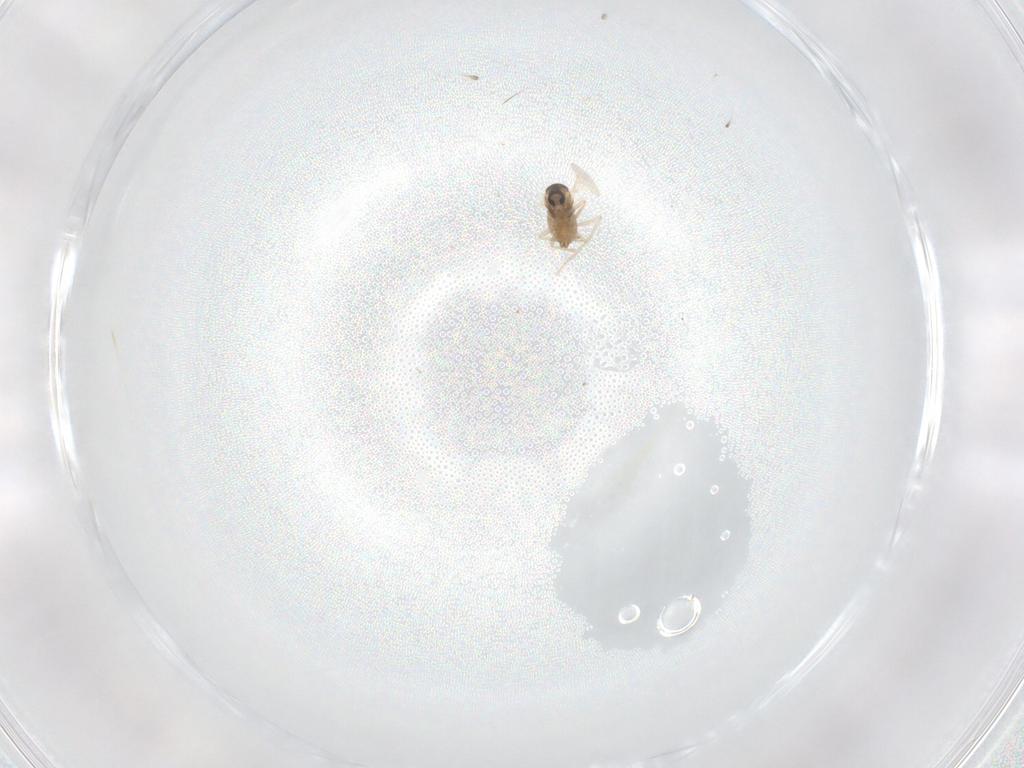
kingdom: Animalia
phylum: Arthropoda
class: Insecta
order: Diptera
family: Cecidomyiidae
